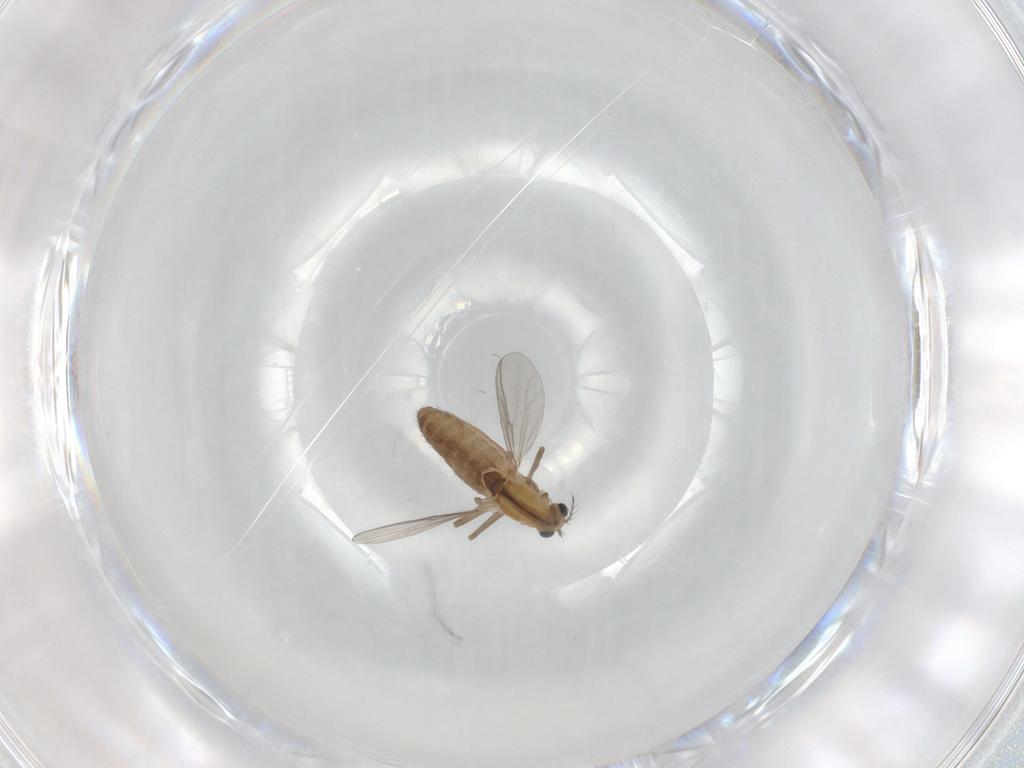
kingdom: Animalia
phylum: Arthropoda
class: Insecta
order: Diptera
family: Chironomidae
